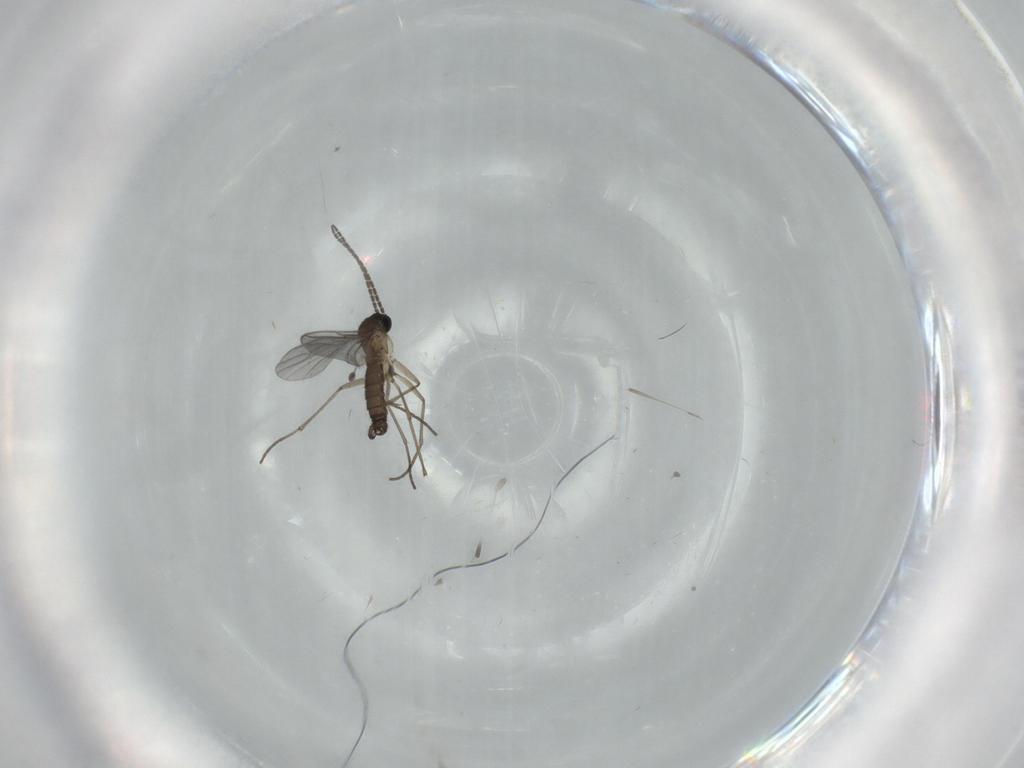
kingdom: Animalia
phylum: Arthropoda
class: Insecta
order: Diptera
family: Sciaridae
